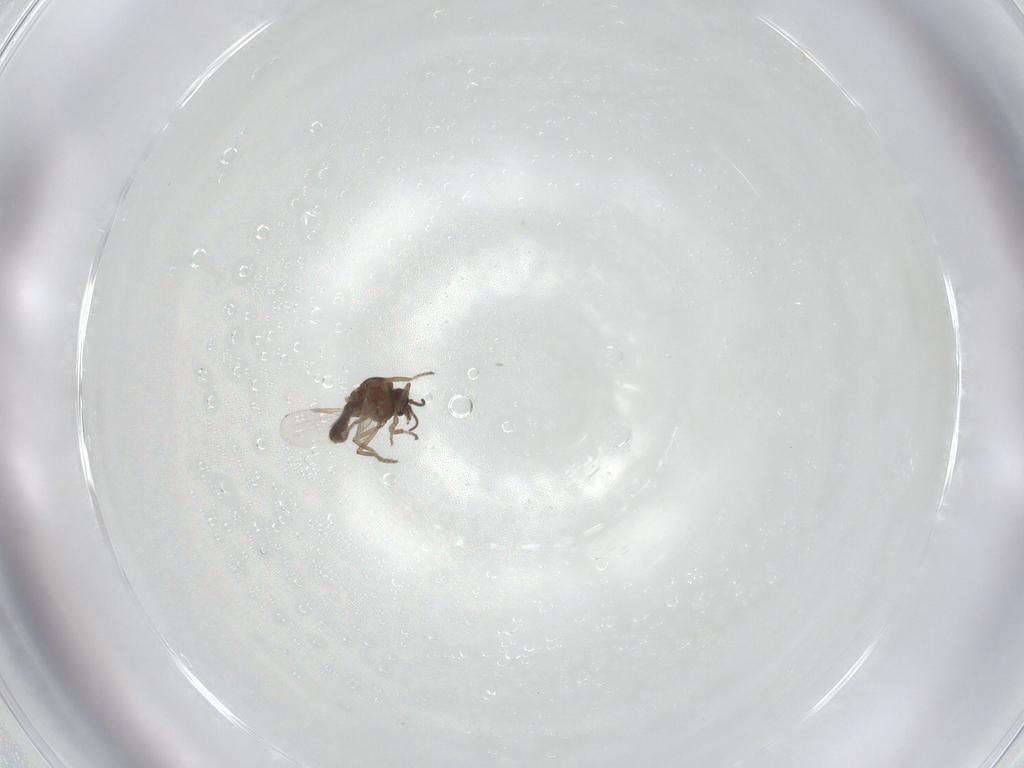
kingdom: Animalia
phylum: Arthropoda
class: Insecta
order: Diptera
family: Ceratopogonidae
